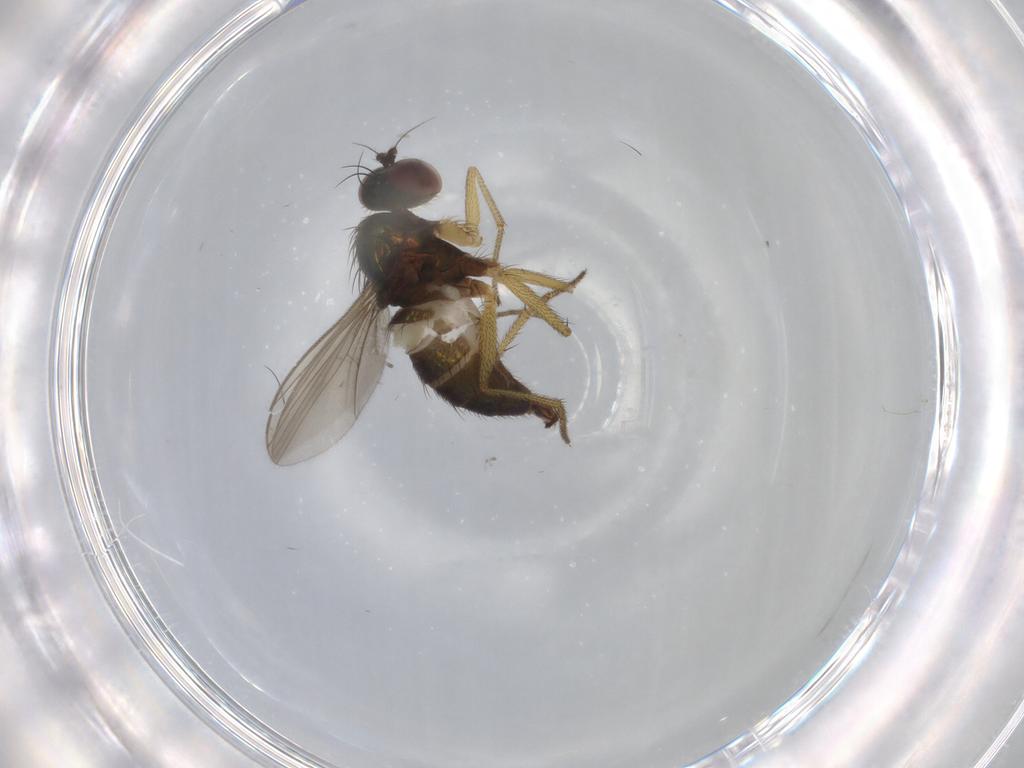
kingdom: Animalia
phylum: Arthropoda
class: Insecta
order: Diptera
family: Dolichopodidae
